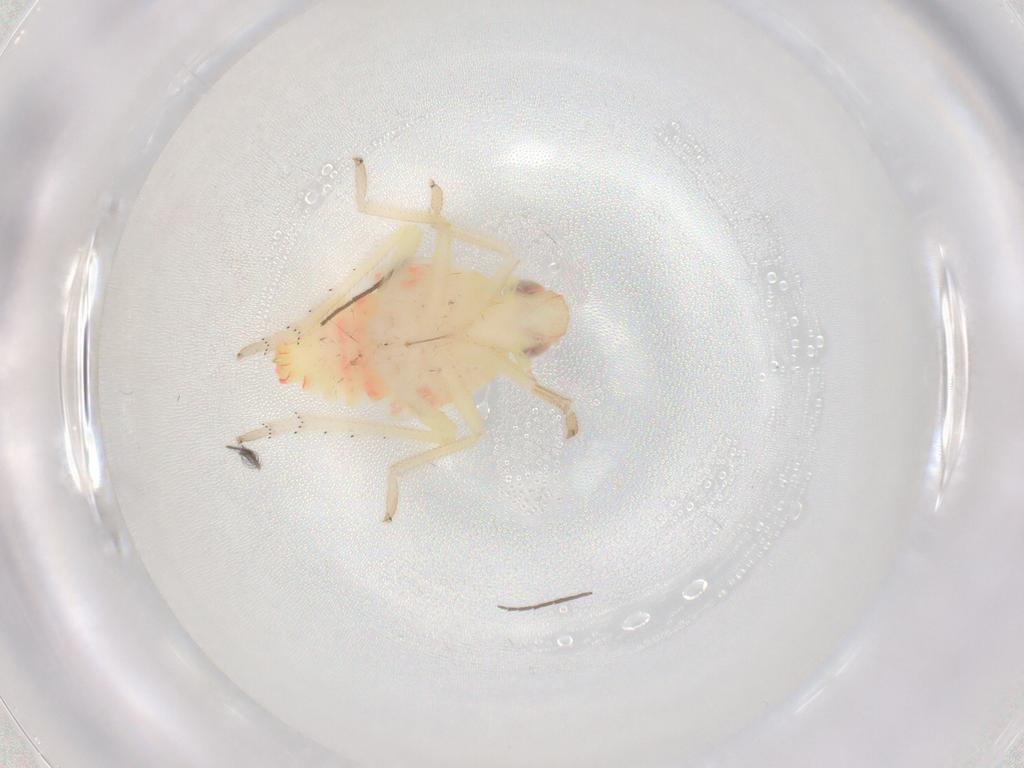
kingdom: Animalia
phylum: Arthropoda
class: Insecta
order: Hemiptera
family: Tropiduchidae
